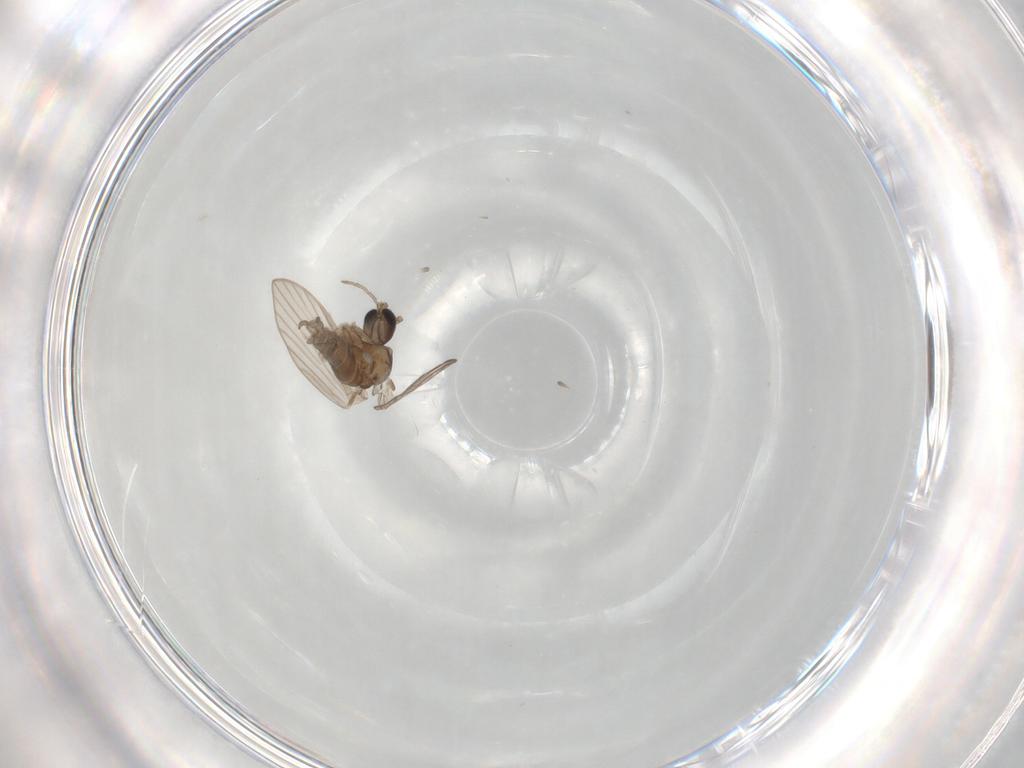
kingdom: Animalia
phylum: Arthropoda
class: Insecta
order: Diptera
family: Psychodidae
